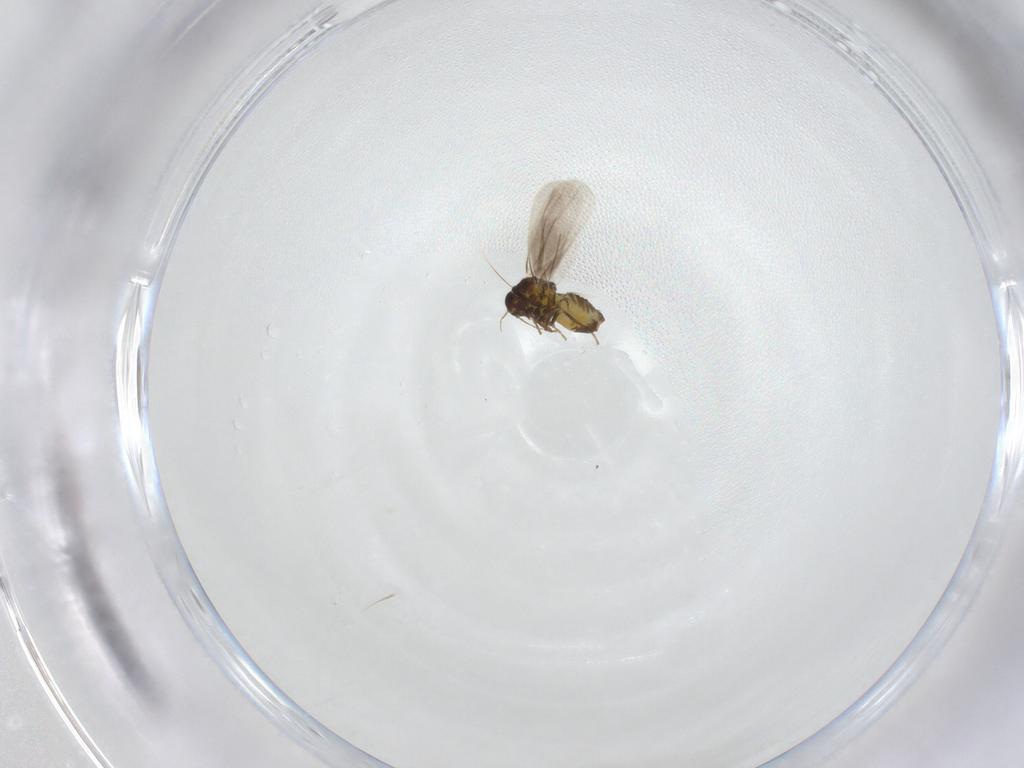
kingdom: Animalia
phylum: Arthropoda
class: Insecta
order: Hemiptera
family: Aleyrodidae
